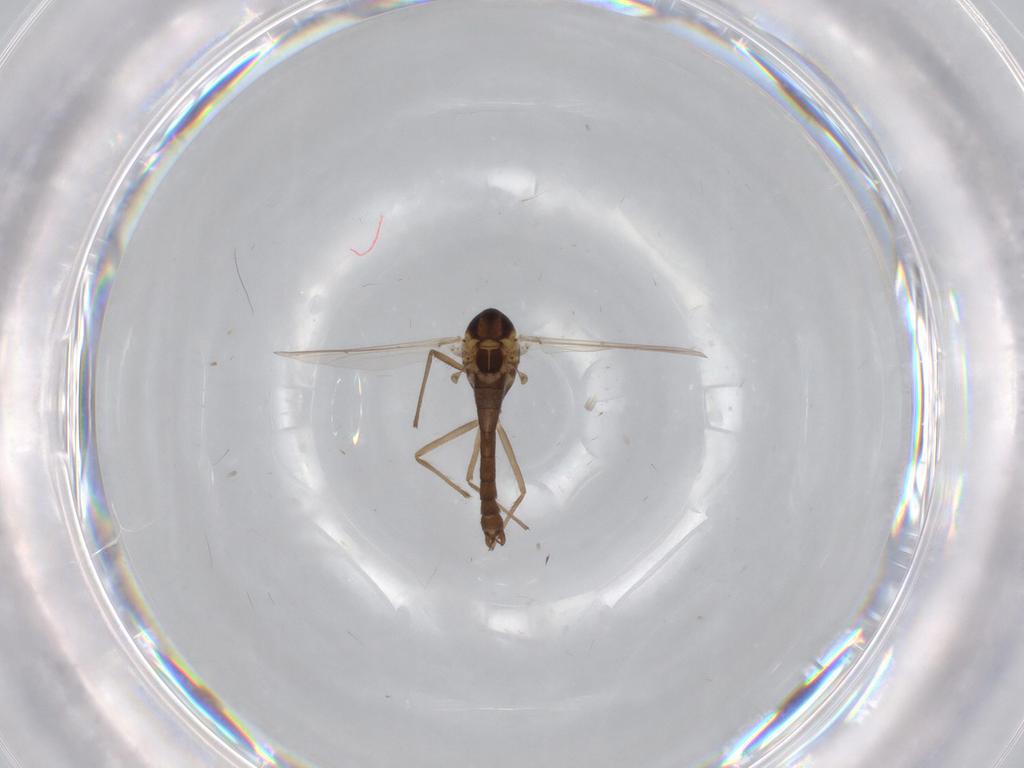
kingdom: Animalia
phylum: Arthropoda
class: Insecta
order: Diptera
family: Chironomidae
